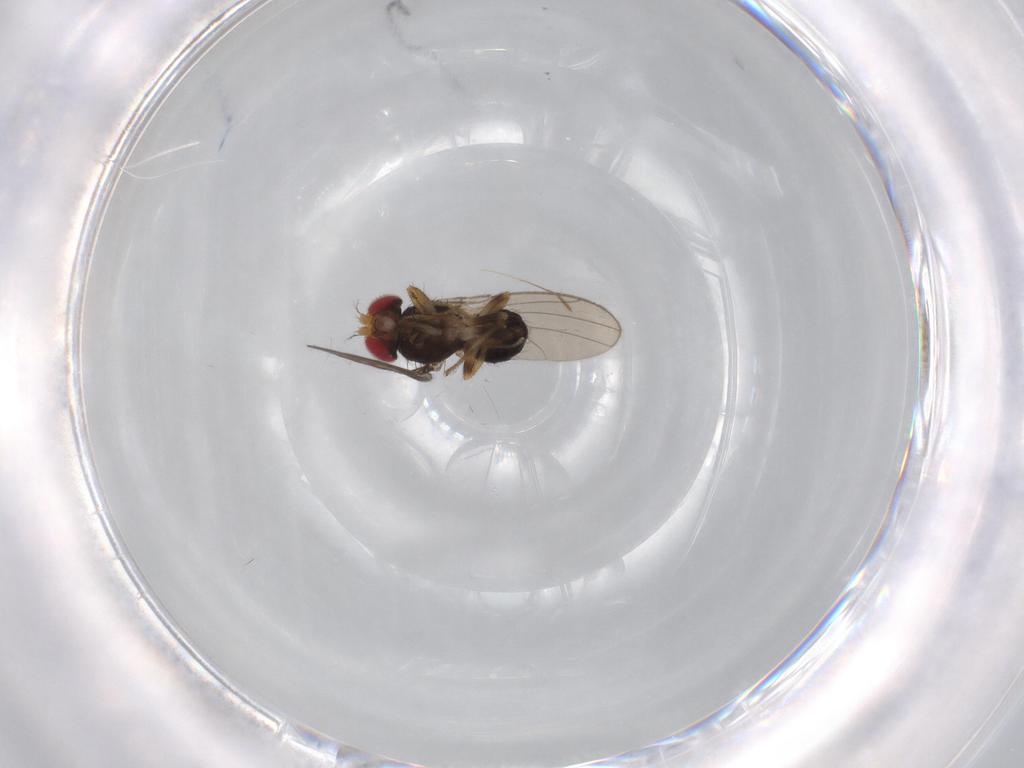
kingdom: Animalia
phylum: Arthropoda
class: Insecta
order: Diptera
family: Drosophilidae
